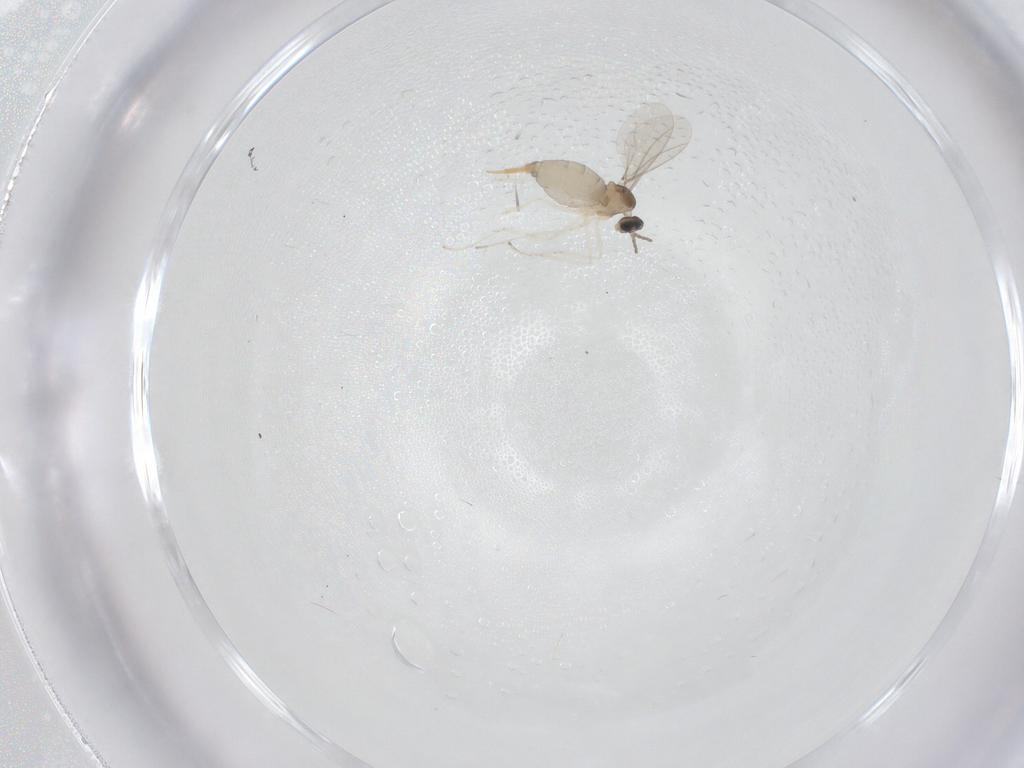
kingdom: Animalia
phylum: Arthropoda
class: Insecta
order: Diptera
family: Cecidomyiidae
